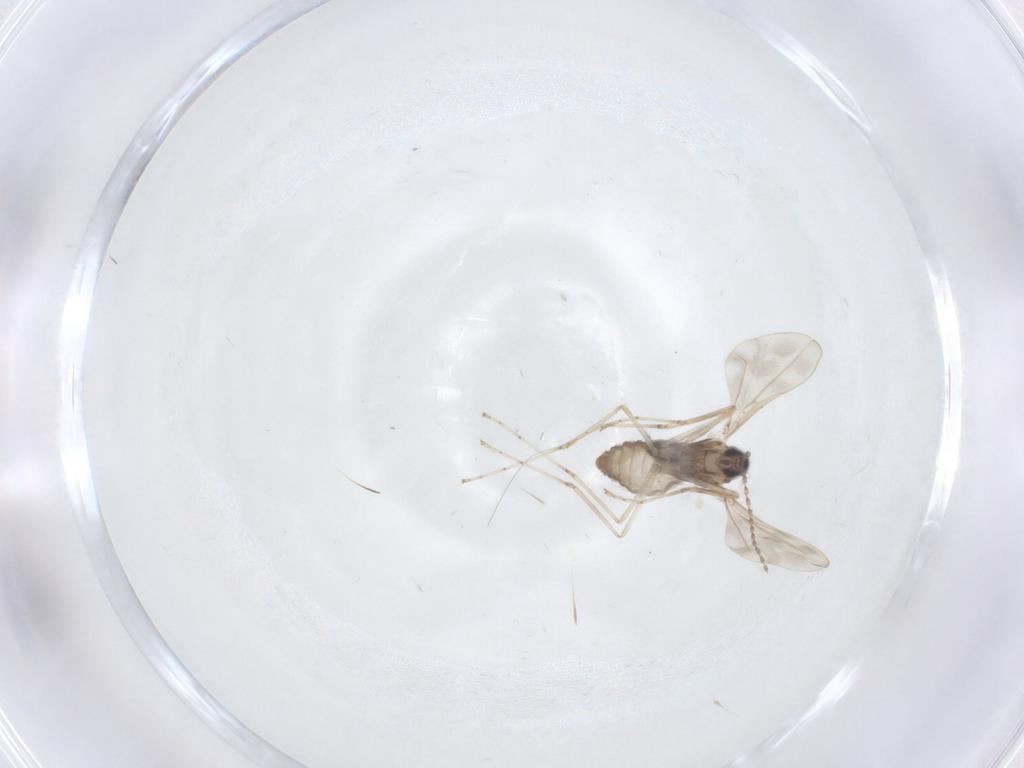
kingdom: Animalia
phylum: Arthropoda
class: Insecta
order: Diptera
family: Cecidomyiidae
